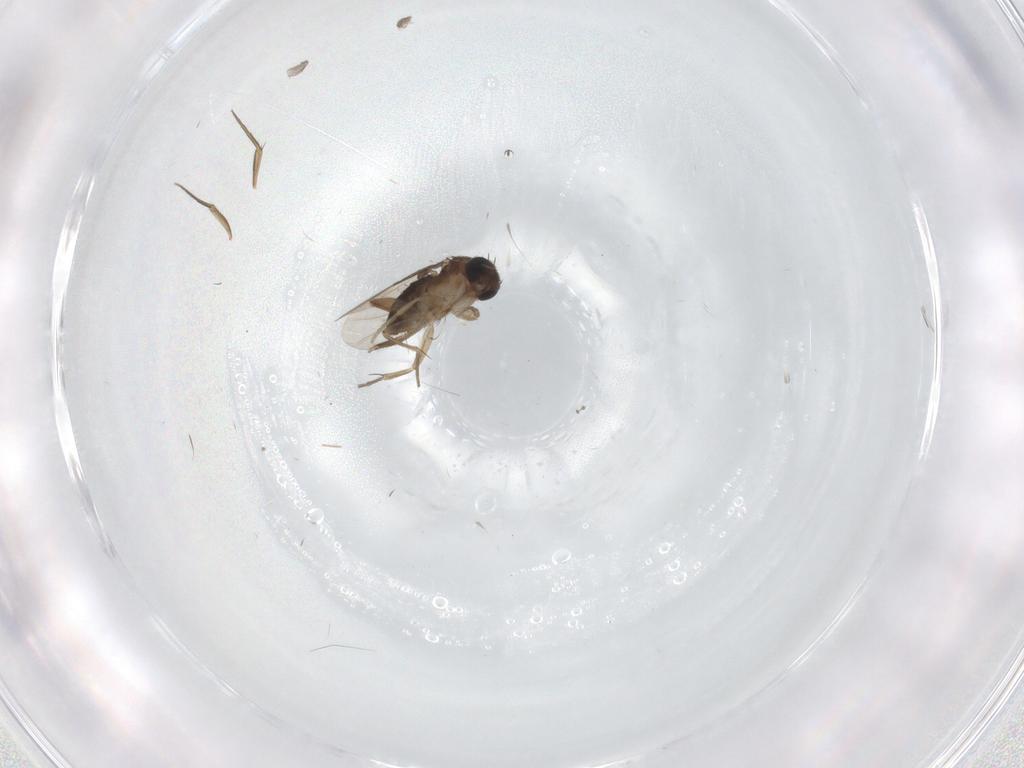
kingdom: Animalia
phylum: Arthropoda
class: Insecta
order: Diptera
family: Phoridae
